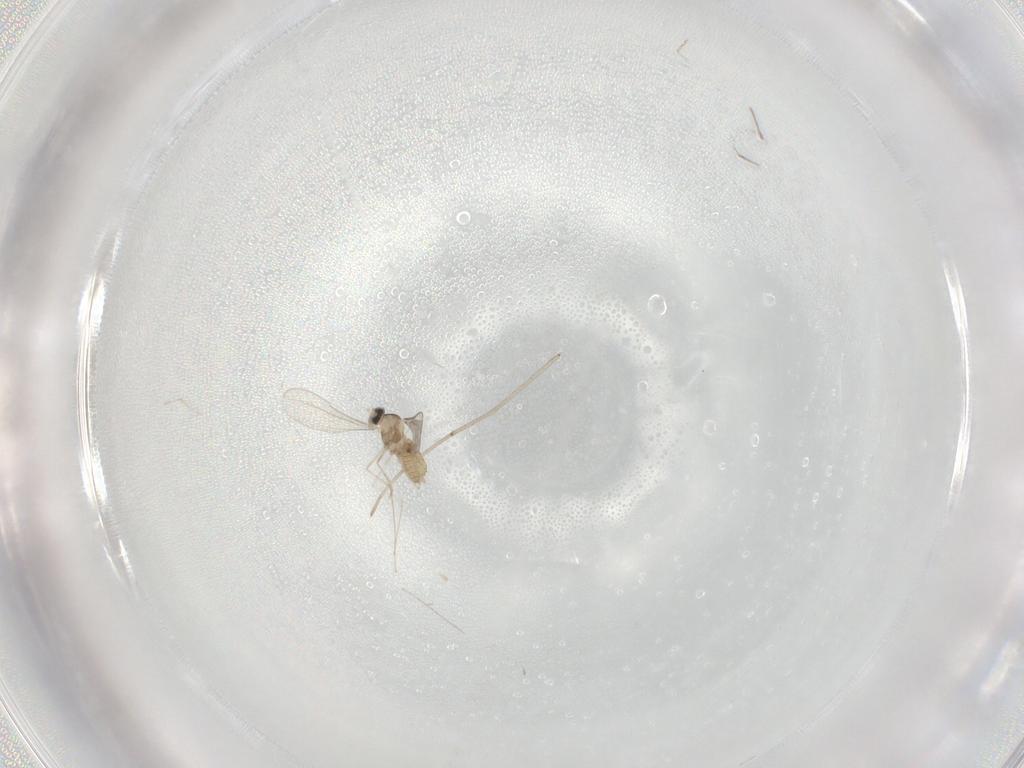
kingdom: Animalia
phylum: Arthropoda
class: Insecta
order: Diptera
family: Cecidomyiidae
